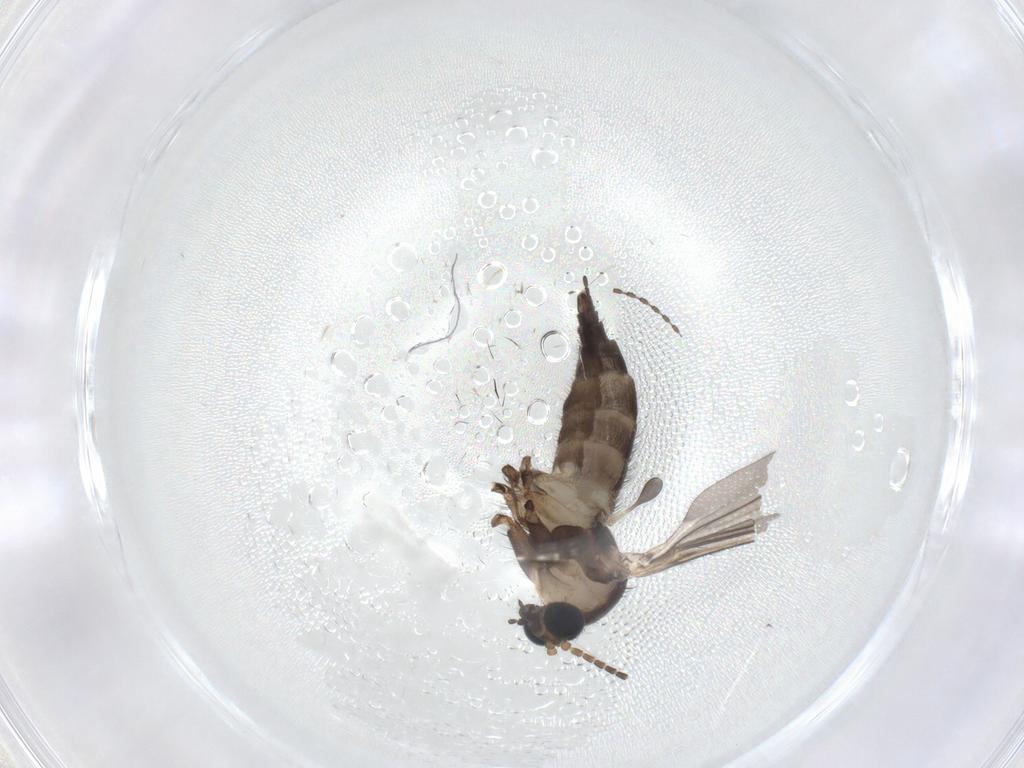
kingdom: Animalia
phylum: Arthropoda
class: Insecta
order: Diptera
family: Sciaridae
